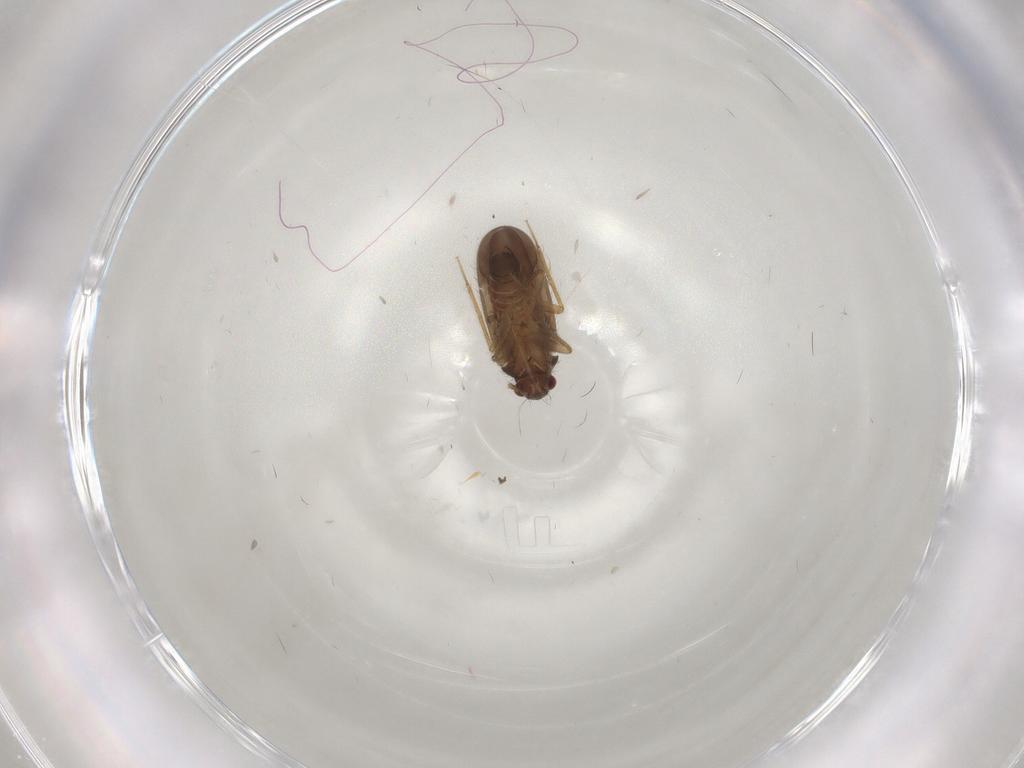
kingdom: Animalia
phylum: Arthropoda
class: Insecta
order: Hemiptera
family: Ceratocombidae
